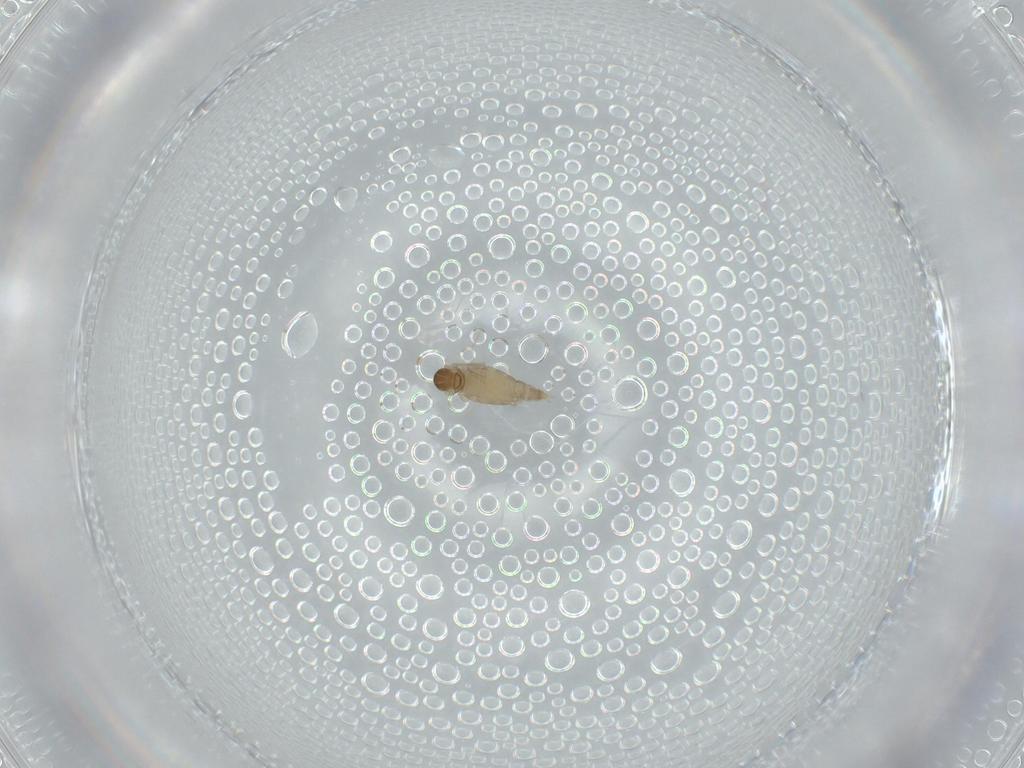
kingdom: Animalia
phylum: Arthropoda
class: Insecta
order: Diptera
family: Cecidomyiidae
